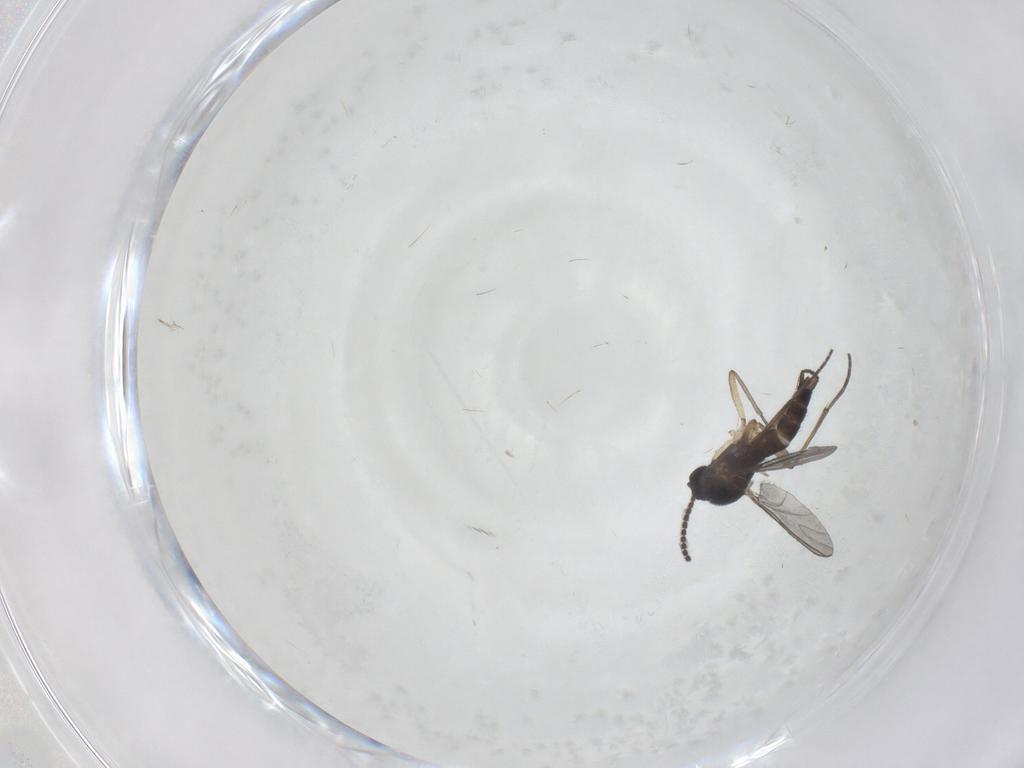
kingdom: Animalia
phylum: Arthropoda
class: Insecta
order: Diptera
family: Sciaridae
